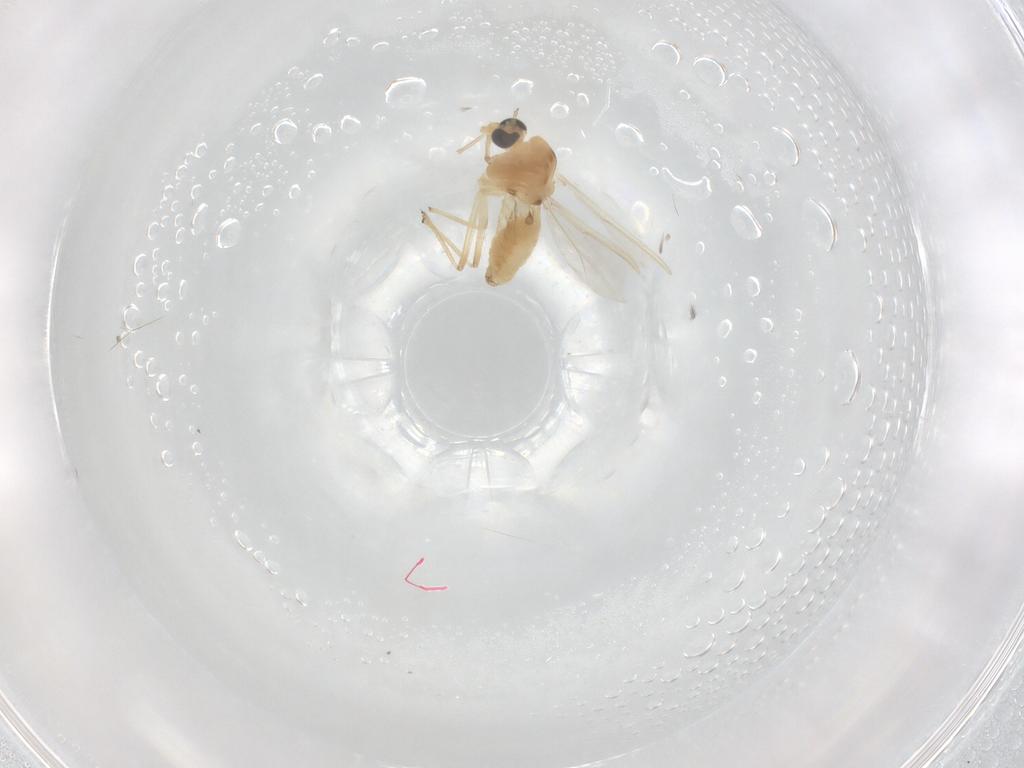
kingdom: Animalia
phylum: Arthropoda
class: Insecta
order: Diptera
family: Chironomidae
